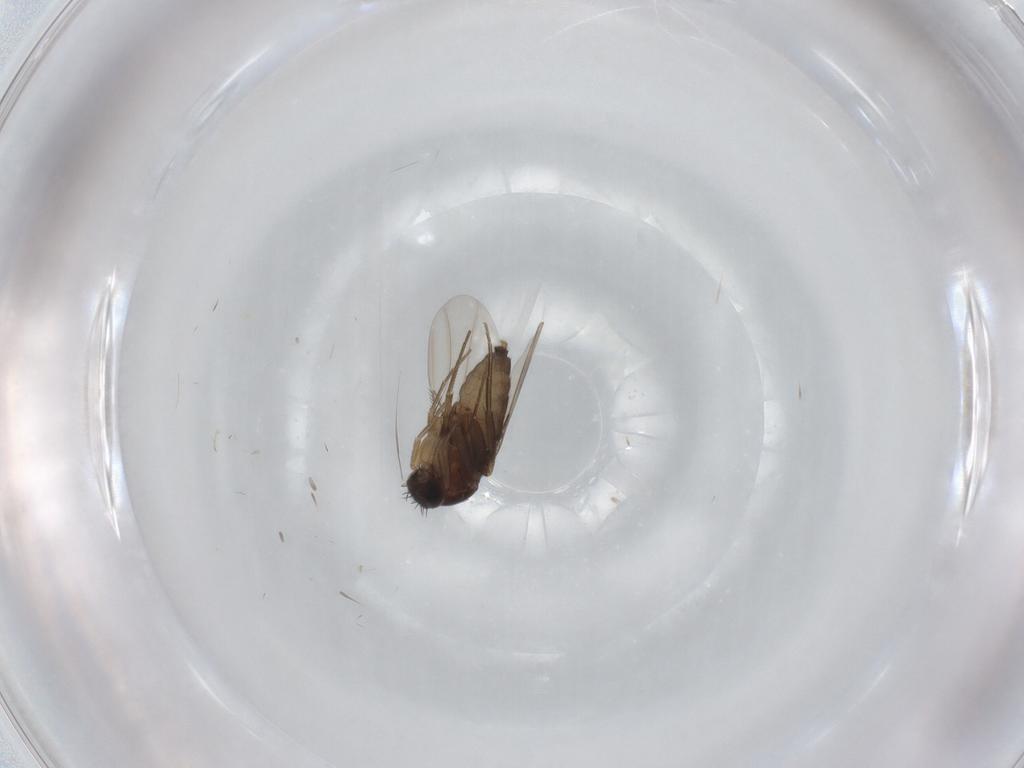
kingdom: Animalia
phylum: Arthropoda
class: Insecta
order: Diptera
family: Phoridae
